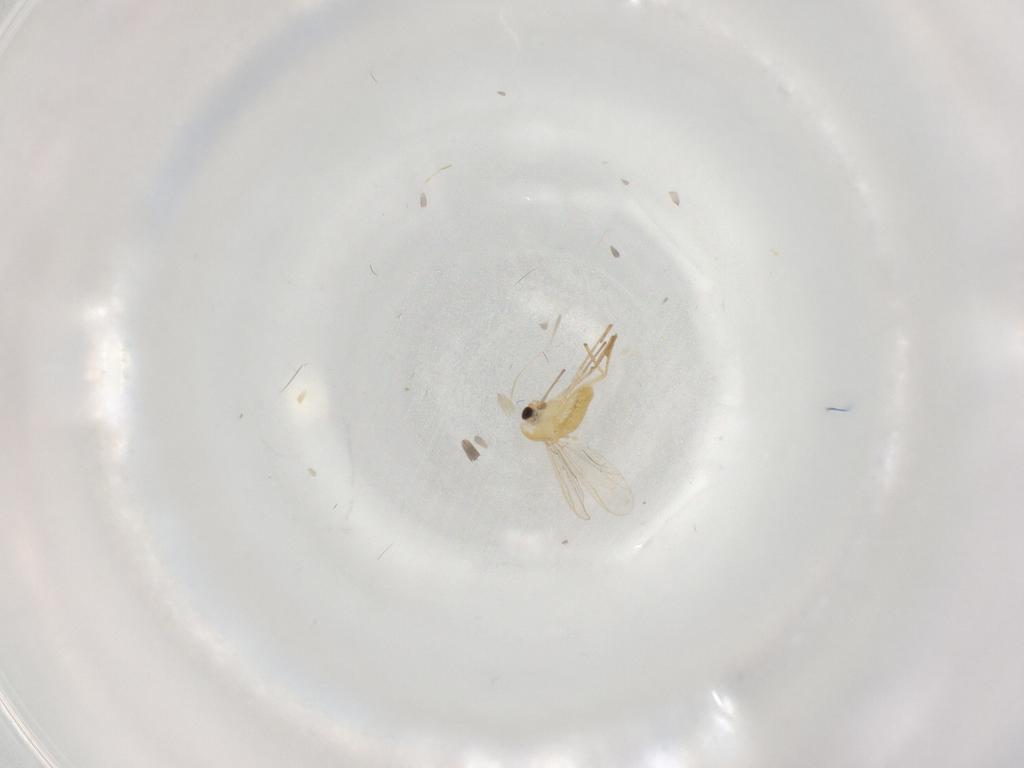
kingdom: Animalia
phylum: Arthropoda
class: Insecta
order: Diptera
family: Chironomidae
